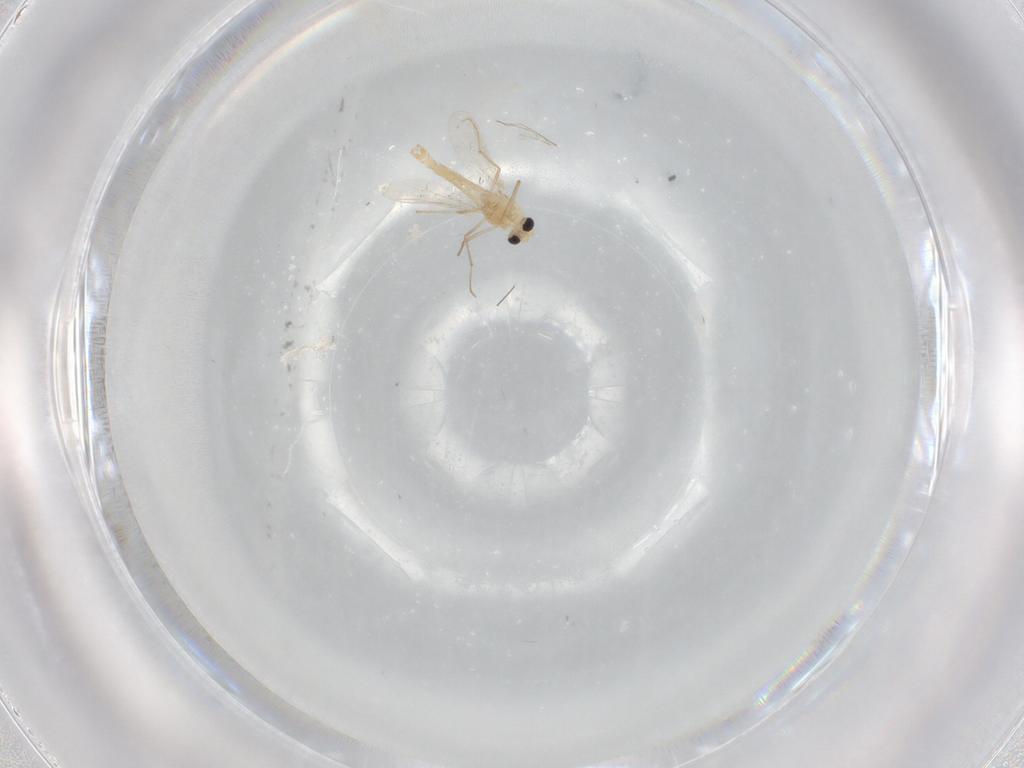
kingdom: Animalia
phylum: Arthropoda
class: Insecta
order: Diptera
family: Chironomidae
